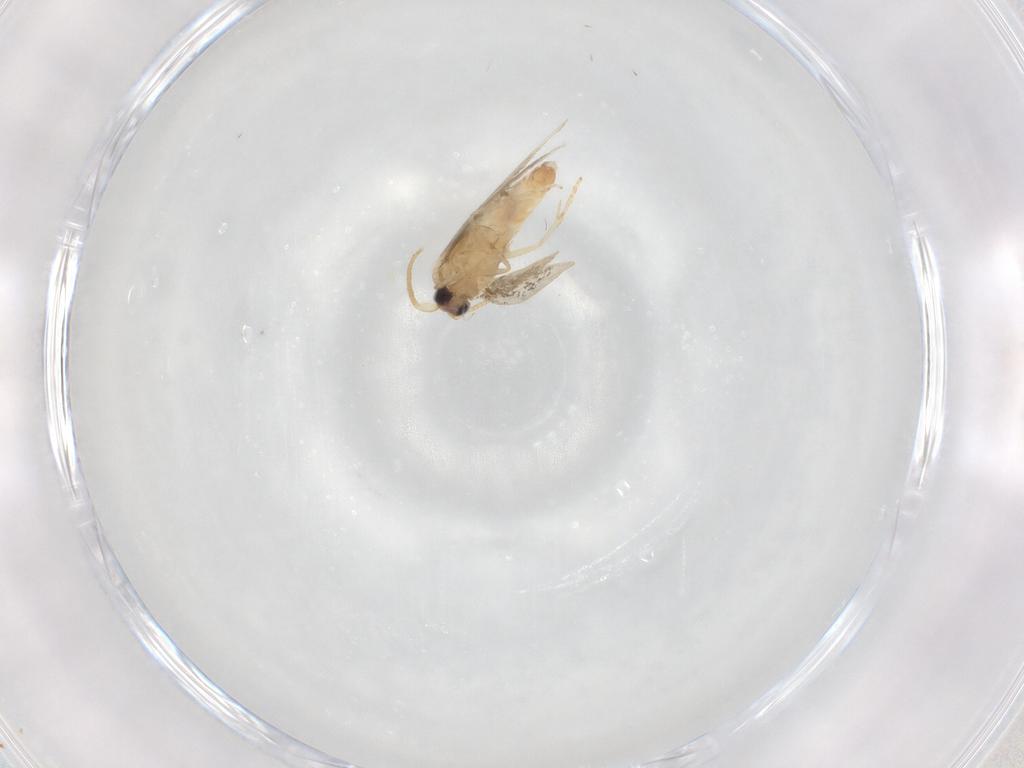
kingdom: Animalia
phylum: Arthropoda
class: Insecta
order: Lepidoptera
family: Nepticulidae
